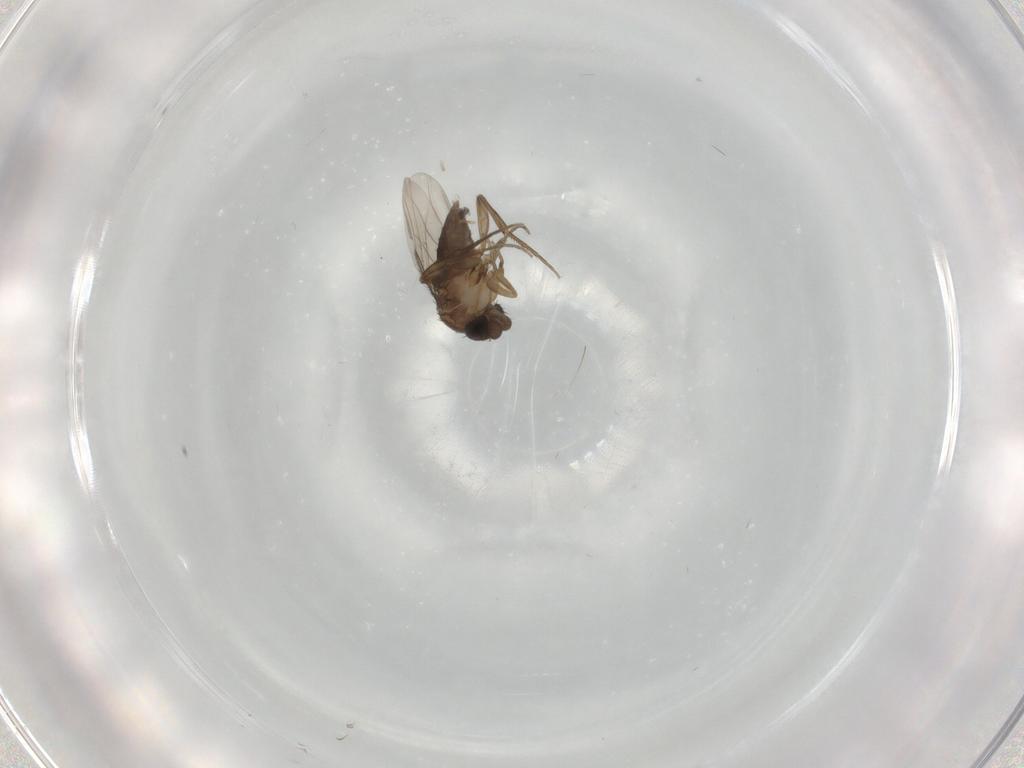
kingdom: Animalia
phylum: Arthropoda
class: Insecta
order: Diptera
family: Phoridae
